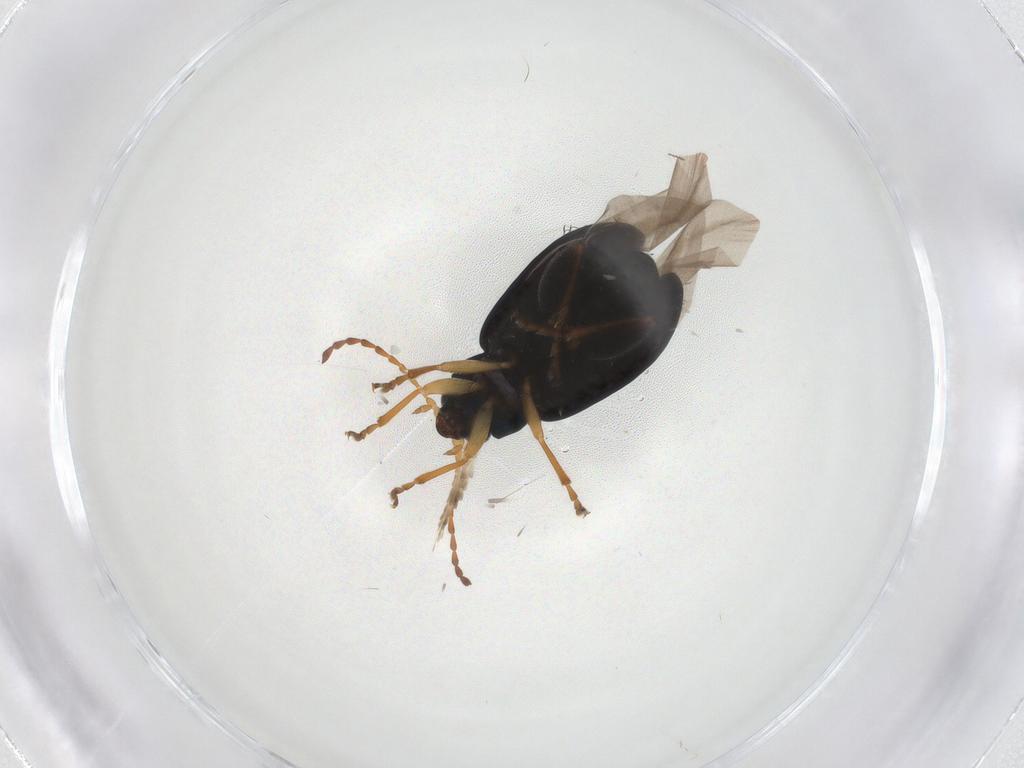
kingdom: Animalia
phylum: Arthropoda
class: Insecta
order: Coleoptera
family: Chrysomelidae
